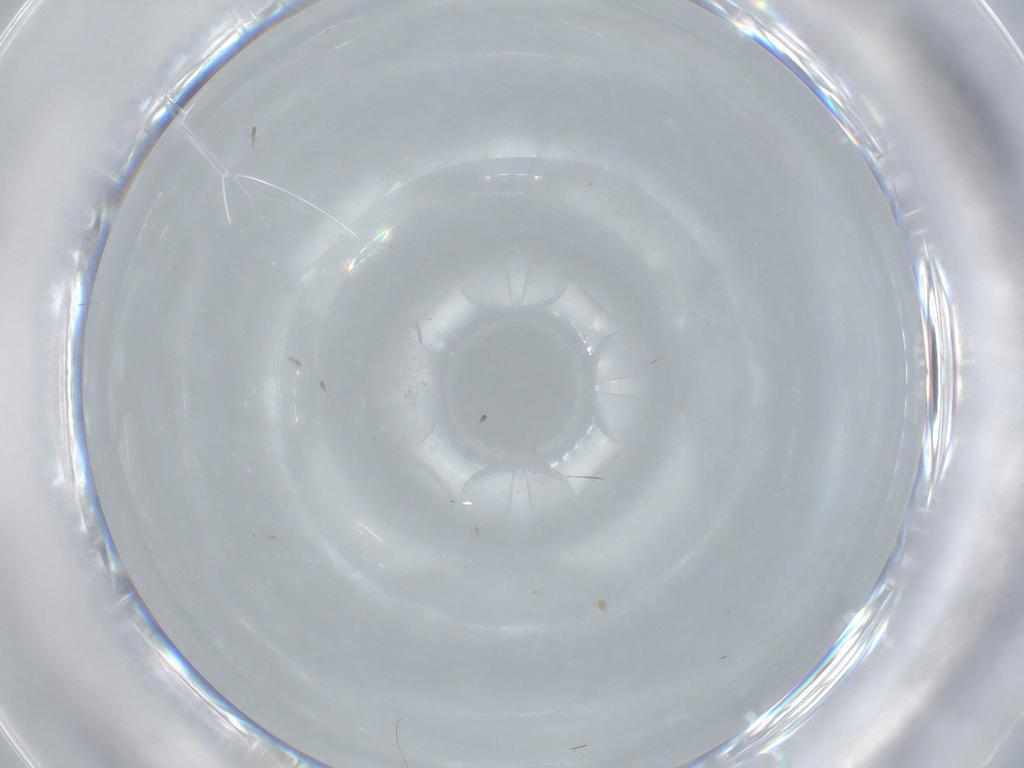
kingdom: Animalia
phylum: Arthropoda
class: Insecta
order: Coleoptera
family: Chrysomelidae
